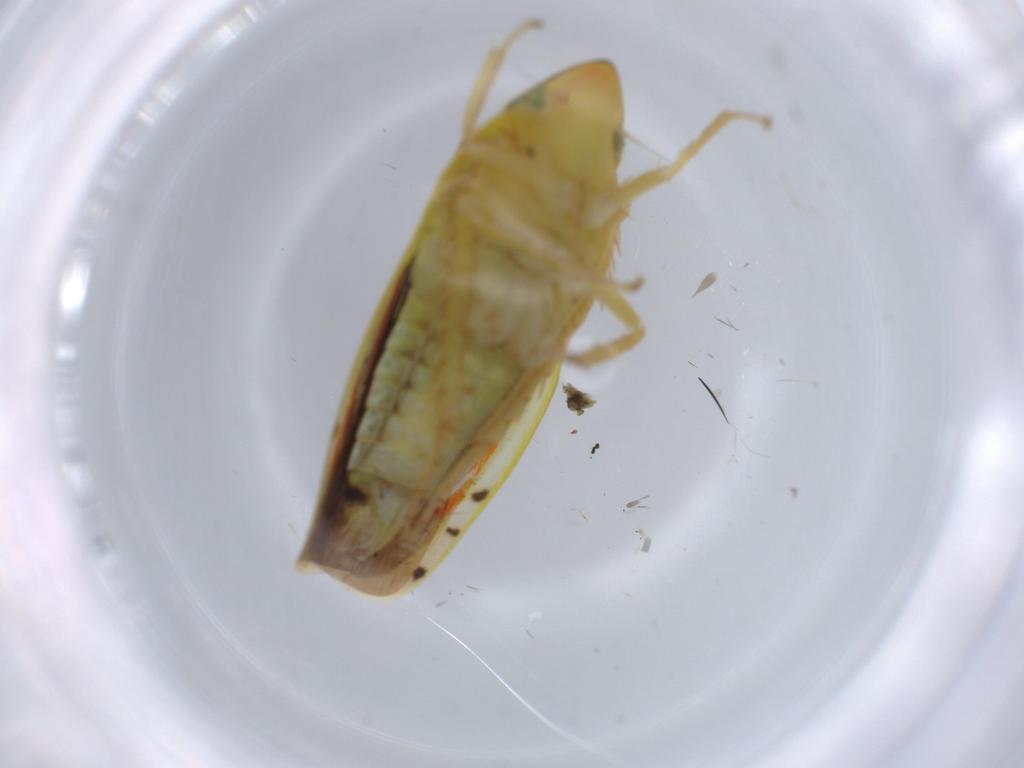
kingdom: Animalia
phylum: Arthropoda
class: Insecta
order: Hemiptera
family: Cicadellidae
